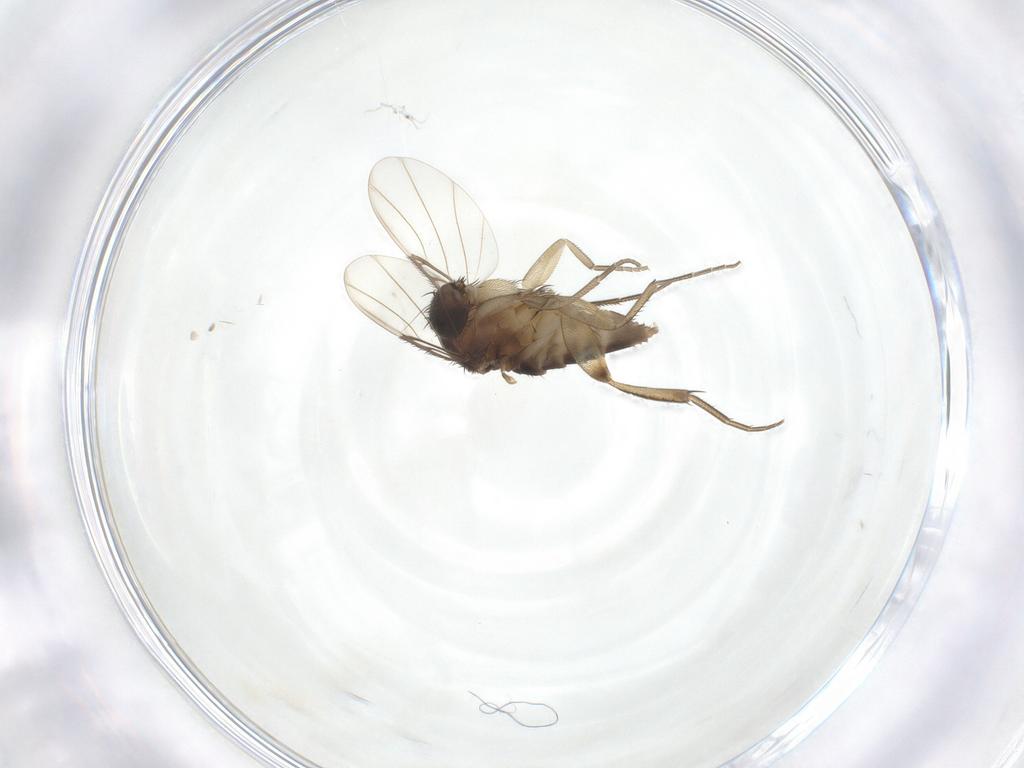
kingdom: Animalia
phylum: Arthropoda
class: Insecta
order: Diptera
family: Phoridae
